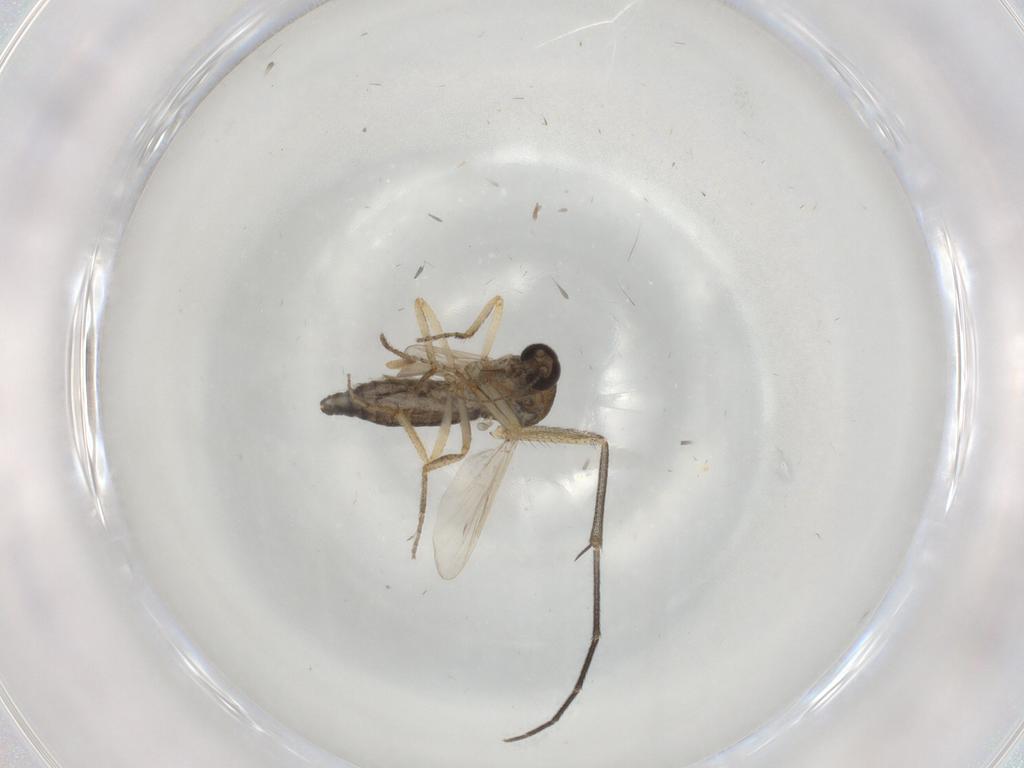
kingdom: Animalia
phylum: Arthropoda
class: Insecta
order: Diptera
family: Ceratopogonidae
